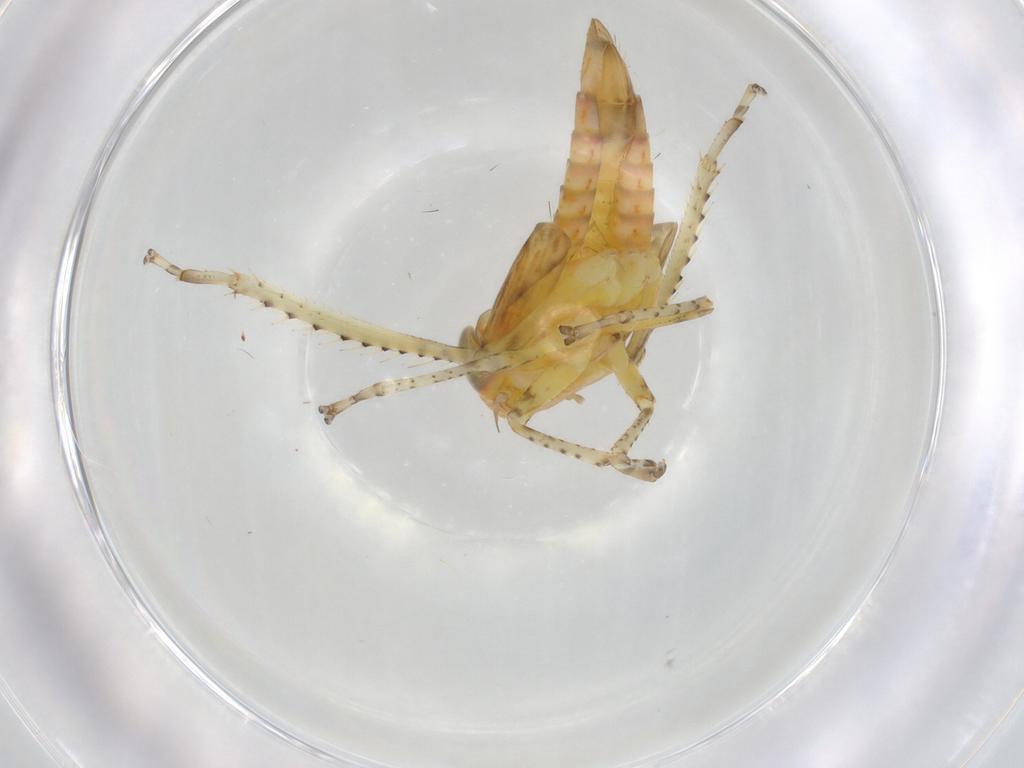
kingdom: Animalia
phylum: Arthropoda
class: Insecta
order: Hemiptera
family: Cicadellidae
